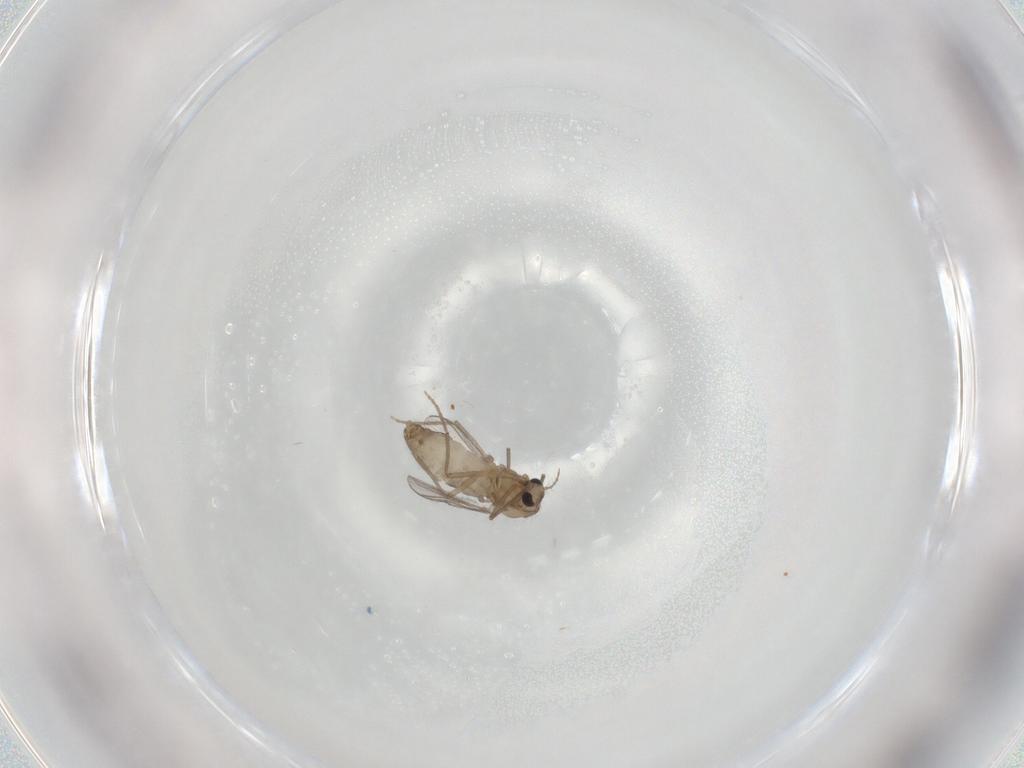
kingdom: Animalia
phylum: Arthropoda
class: Insecta
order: Diptera
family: Chironomidae
